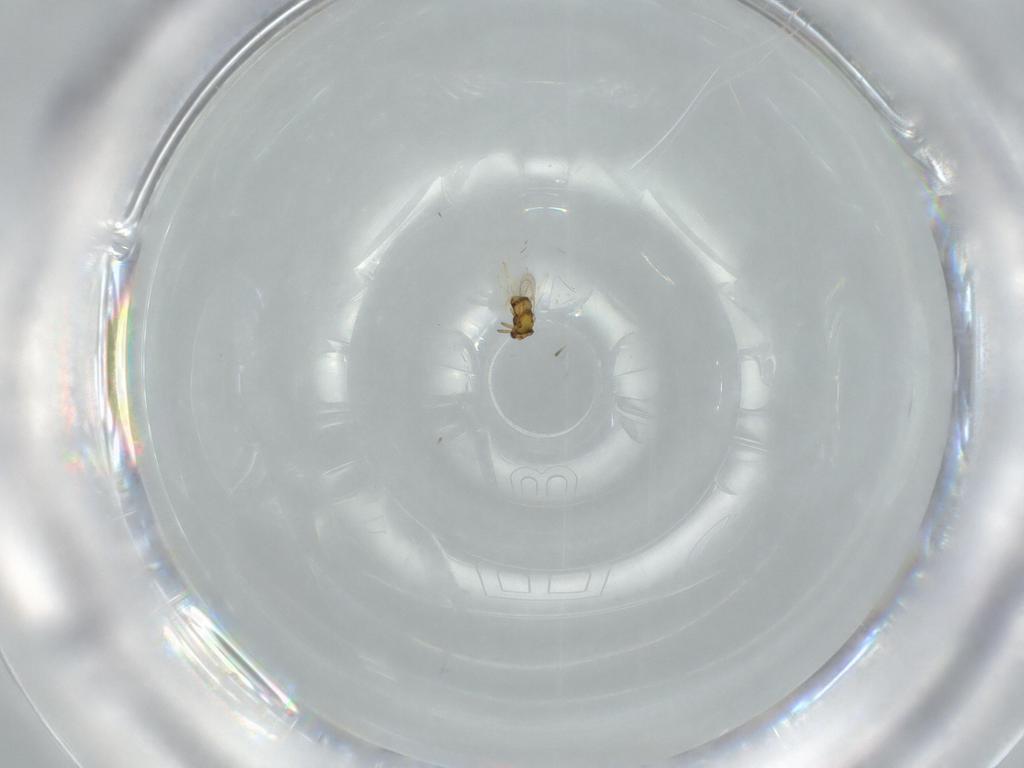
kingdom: Animalia
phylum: Arthropoda
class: Insecta
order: Hymenoptera
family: Aphelinidae
